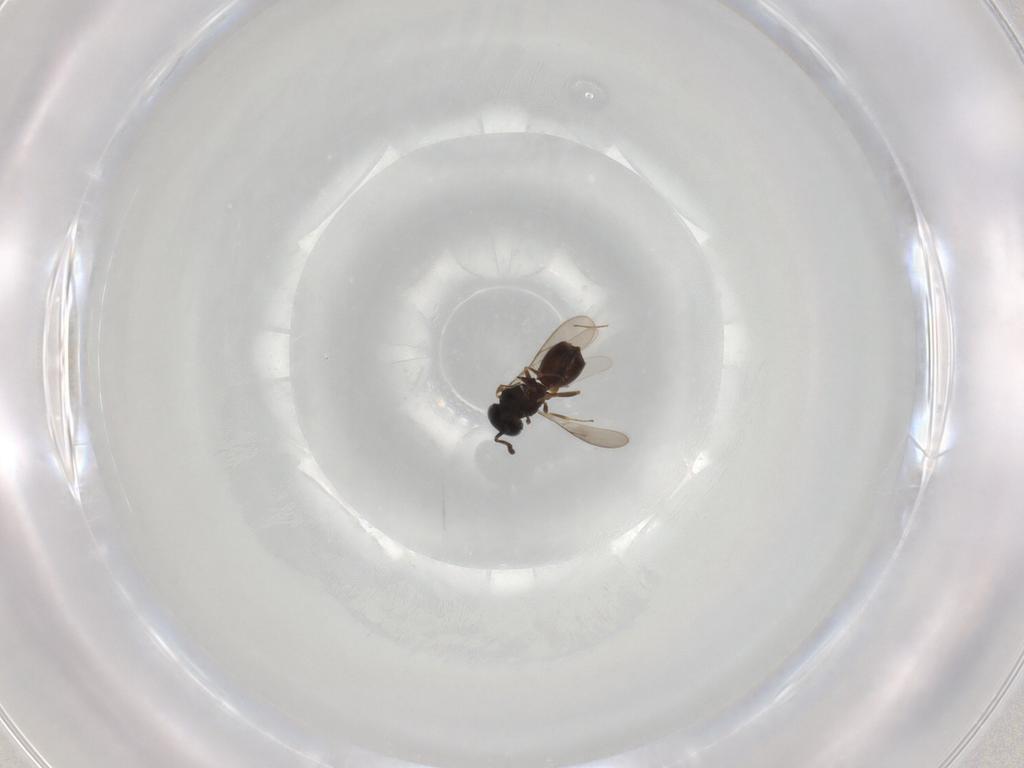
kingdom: Animalia
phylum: Arthropoda
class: Insecta
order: Hymenoptera
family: Scelionidae
